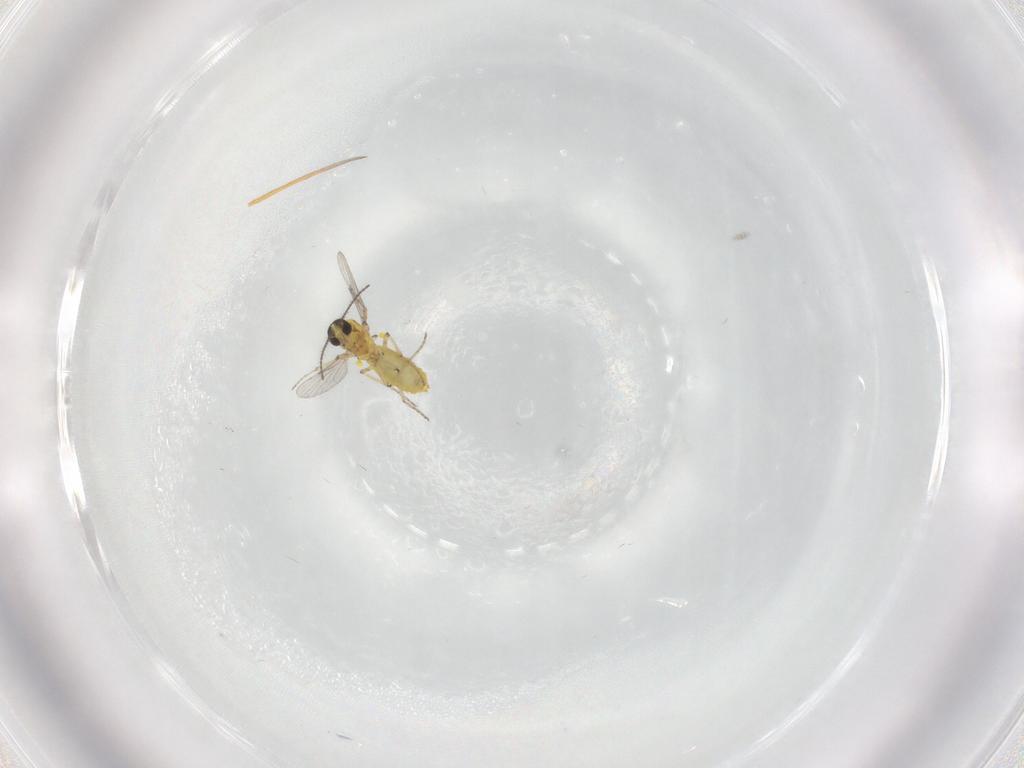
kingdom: Animalia
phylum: Arthropoda
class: Insecta
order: Diptera
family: Ceratopogonidae
